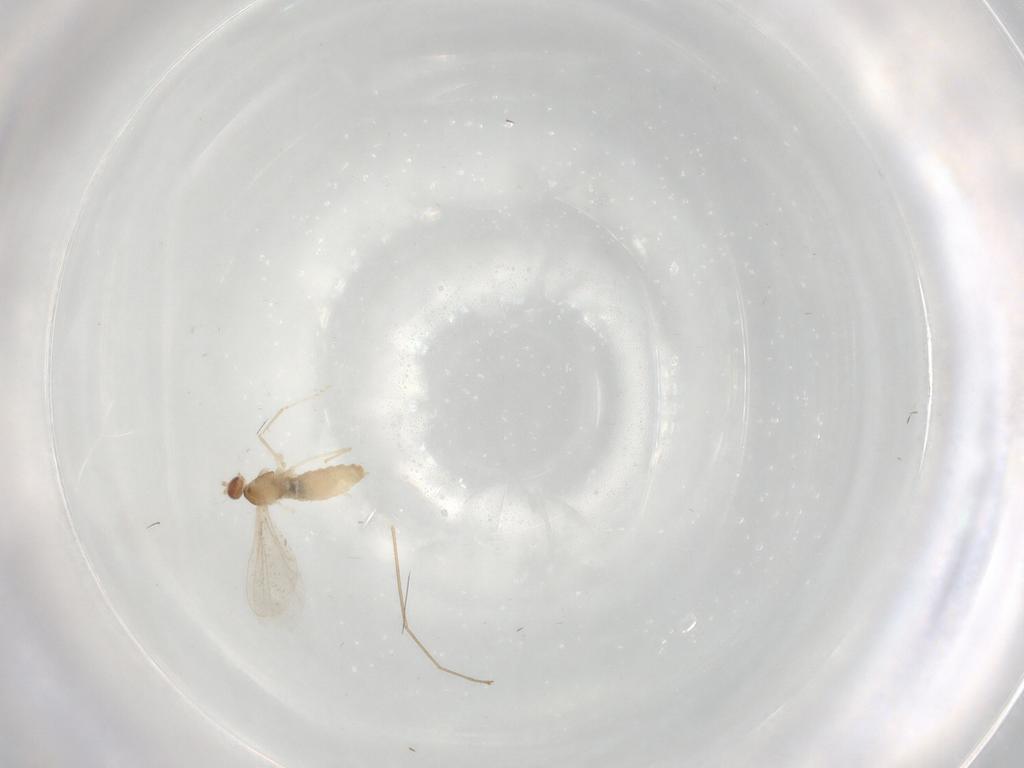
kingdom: Animalia
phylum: Arthropoda
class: Insecta
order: Diptera
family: Cecidomyiidae
